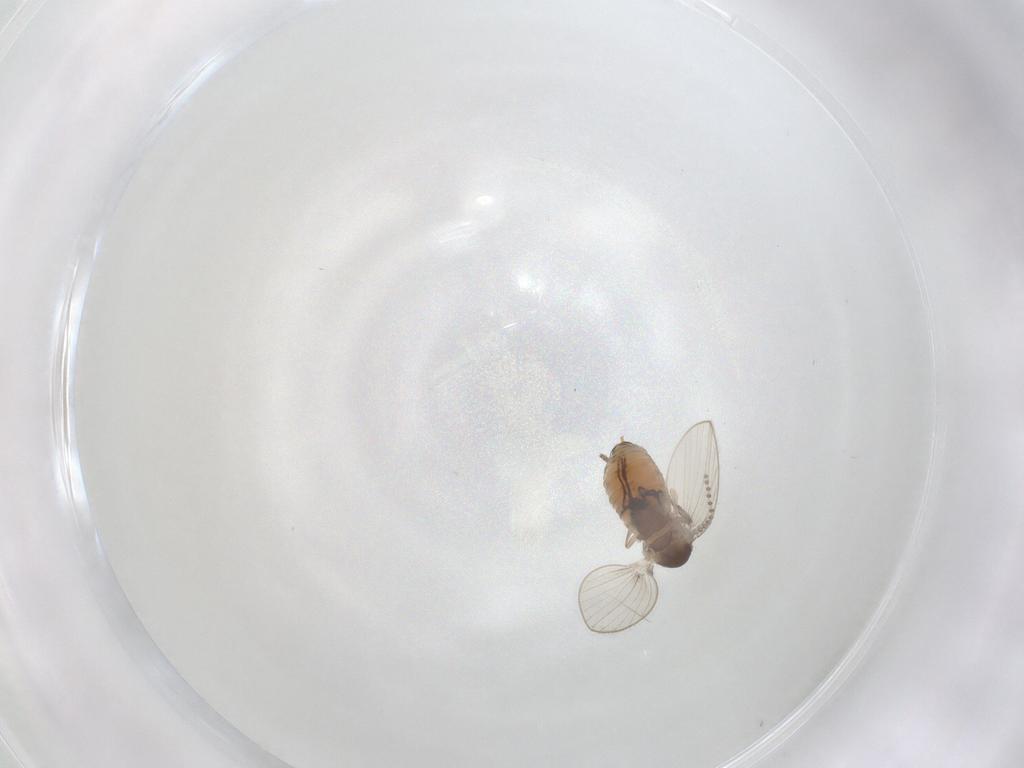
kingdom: Animalia
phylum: Arthropoda
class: Insecta
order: Diptera
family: Psychodidae
